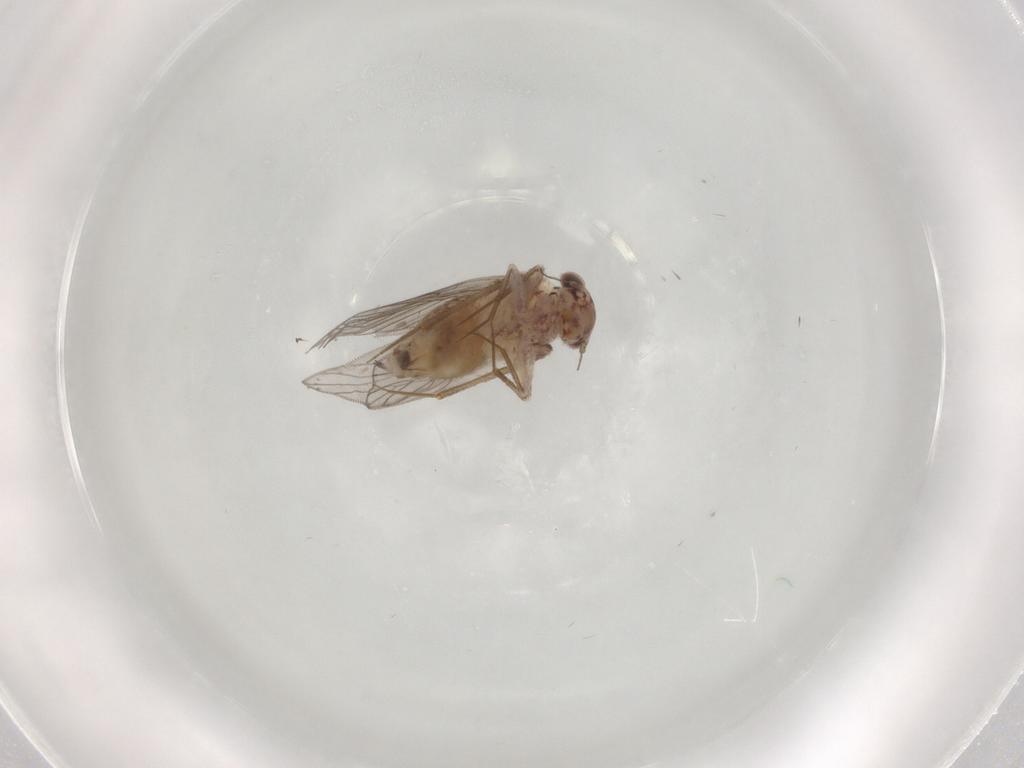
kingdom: Animalia
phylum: Arthropoda
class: Insecta
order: Psocodea
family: Lepidopsocidae
